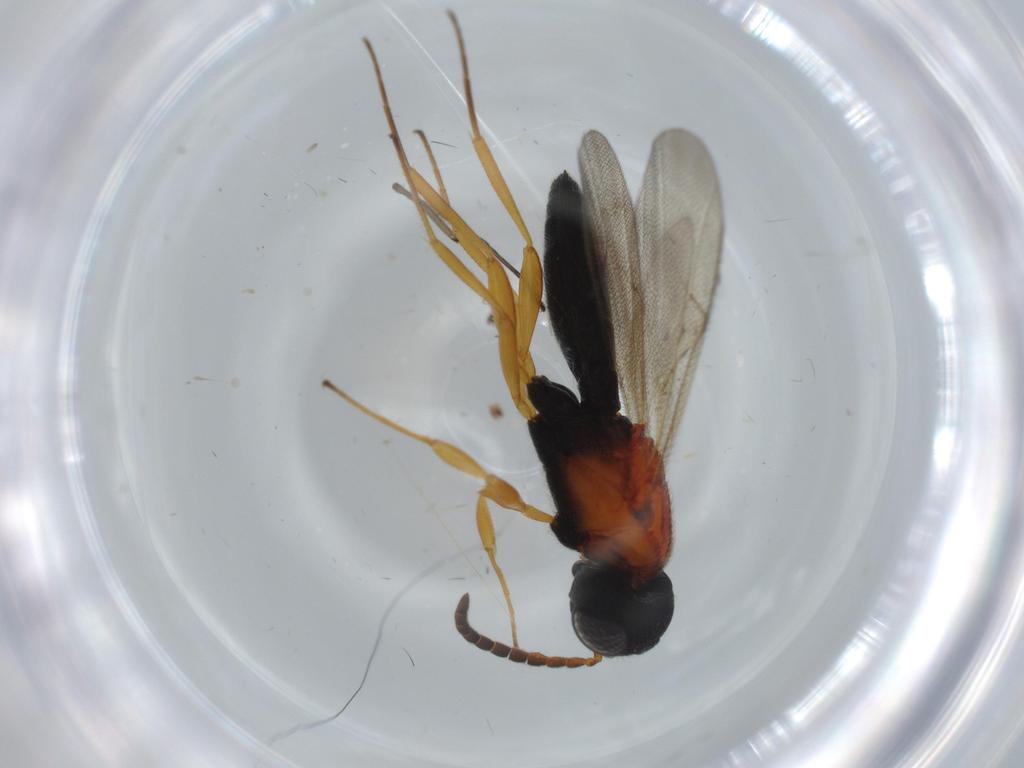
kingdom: Animalia
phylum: Arthropoda
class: Insecta
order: Hymenoptera
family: Scelionidae
